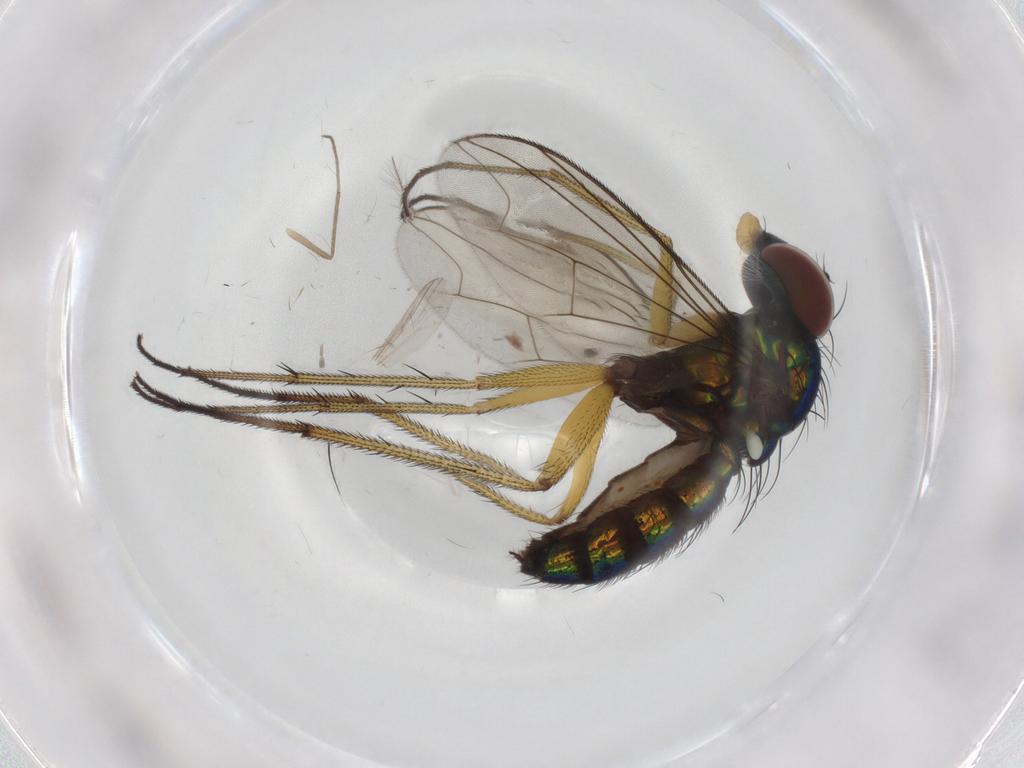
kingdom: Animalia
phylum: Arthropoda
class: Insecta
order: Diptera
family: Dolichopodidae
